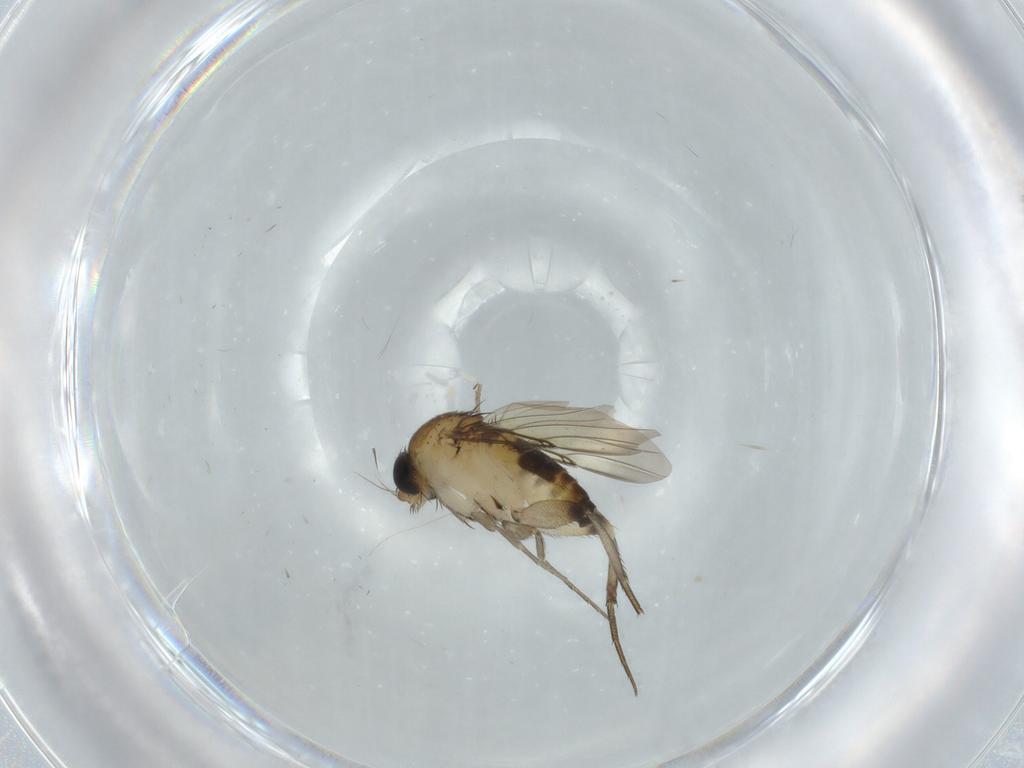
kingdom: Animalia
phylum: Arthropoda
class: Insecta
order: Diptera
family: Phoridae
